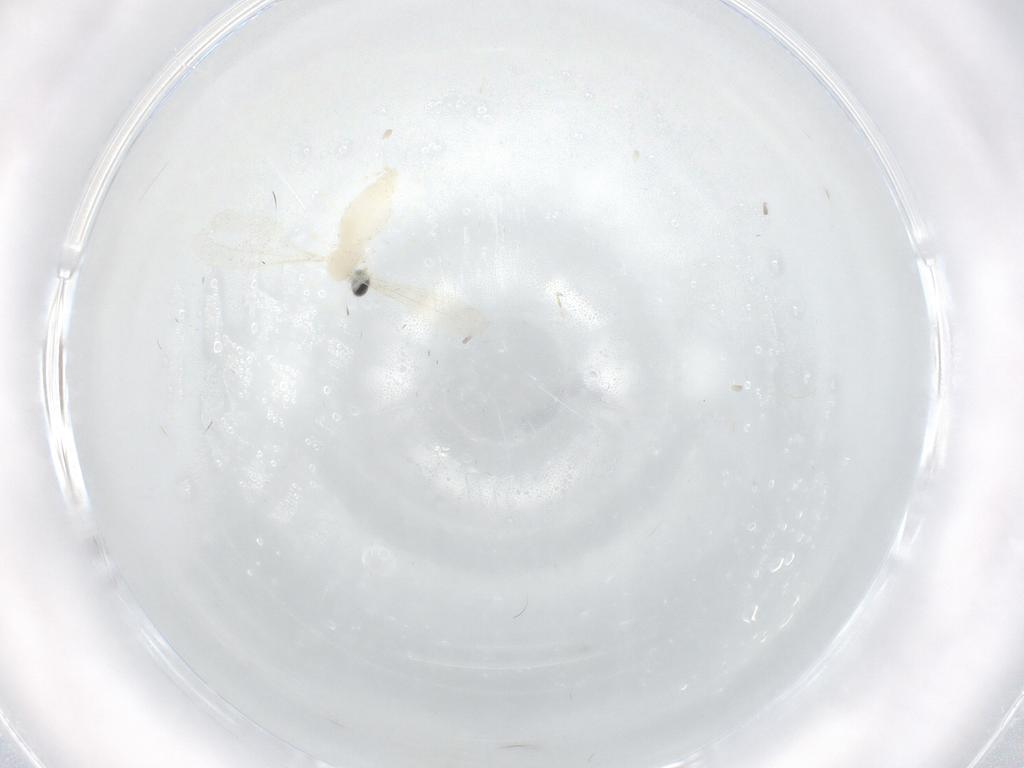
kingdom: Animalia
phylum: Arthropoda
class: Insecta
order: Diptera
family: Cecidomyiidae
